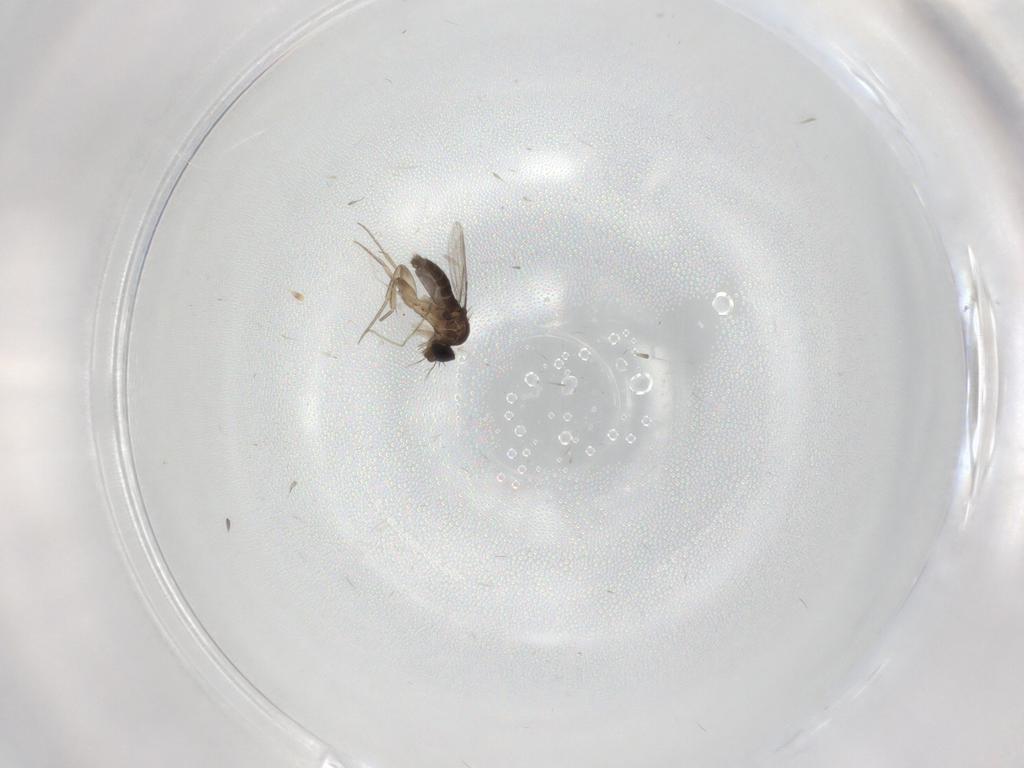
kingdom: Animalia
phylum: Arthropoda
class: Insecta
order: Diptera
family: Phoridae
